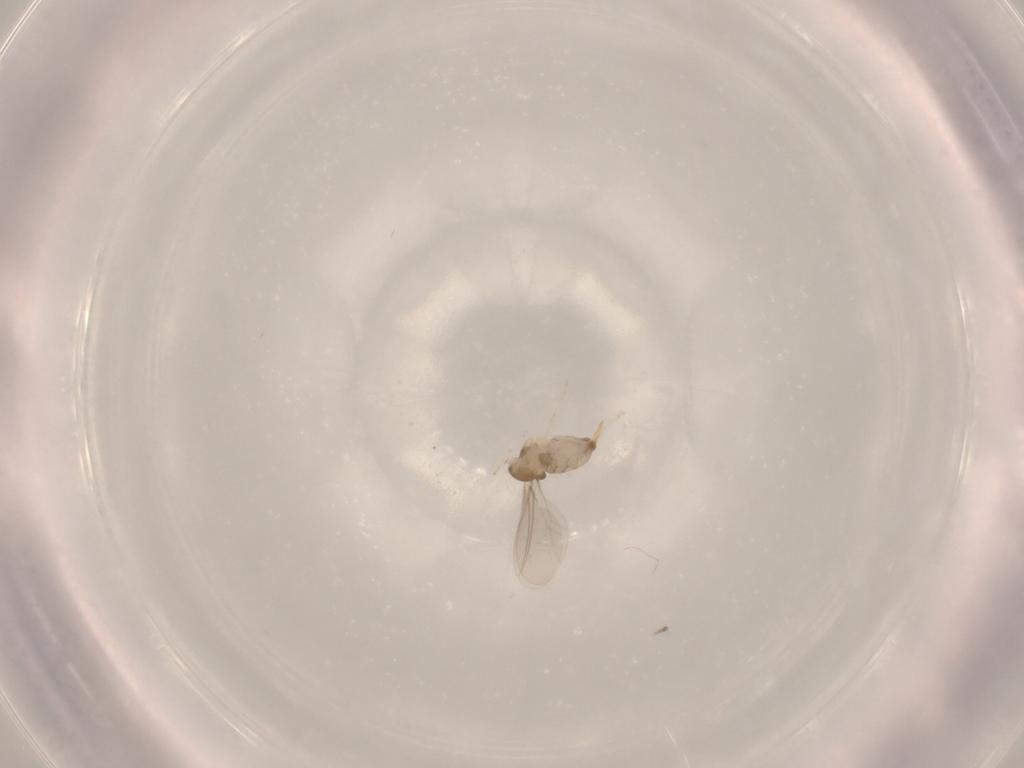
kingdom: Animalia
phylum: Arthropoda
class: Insecta
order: Diptera
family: Cecidomyiidae
